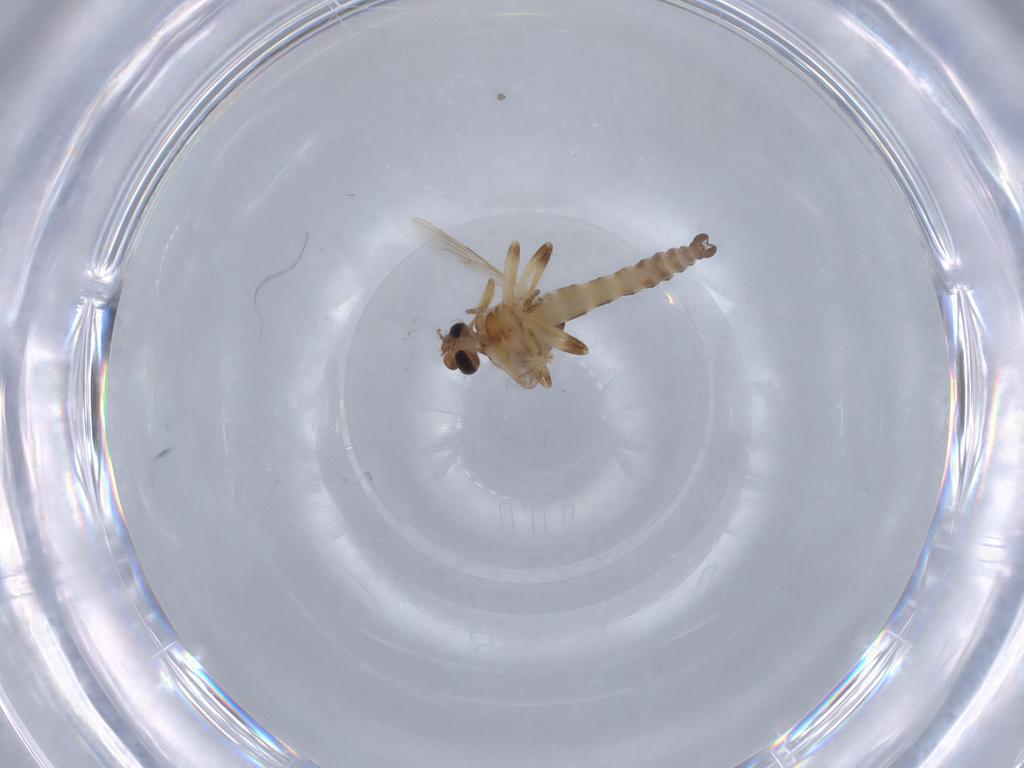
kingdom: Animalia
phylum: Arthropoda
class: Insecta
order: Diptera
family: Ceratopogonidae
